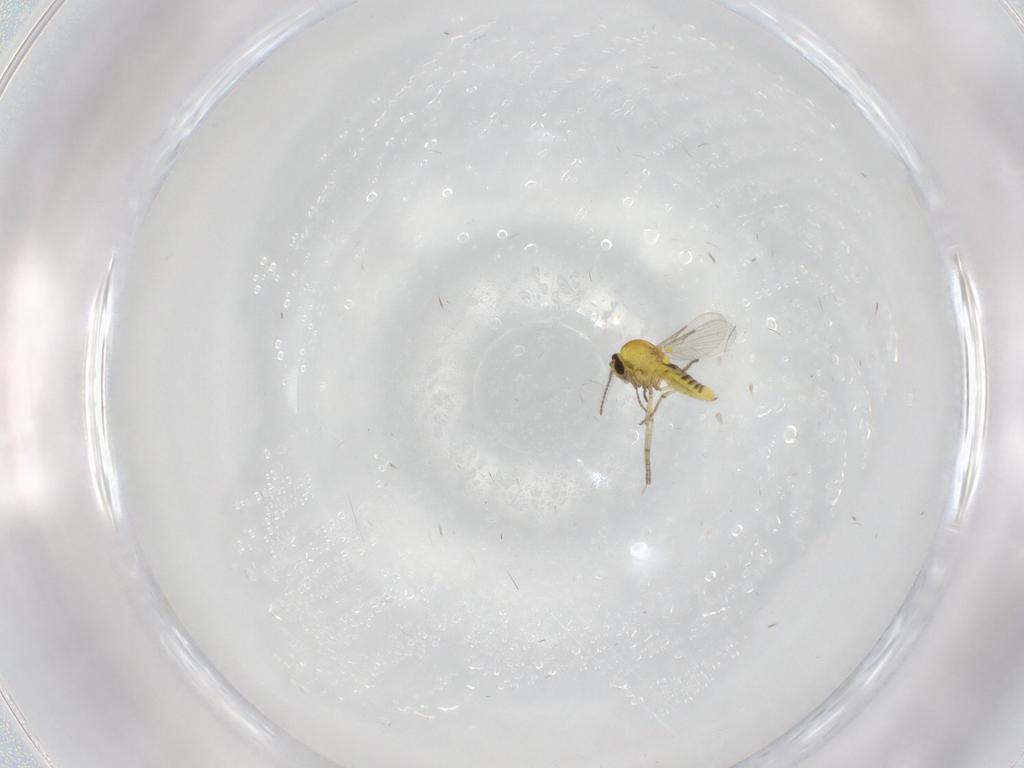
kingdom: Animalia
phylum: Arthropoda
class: Insecta
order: Diptera
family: Ceratopogonidae
